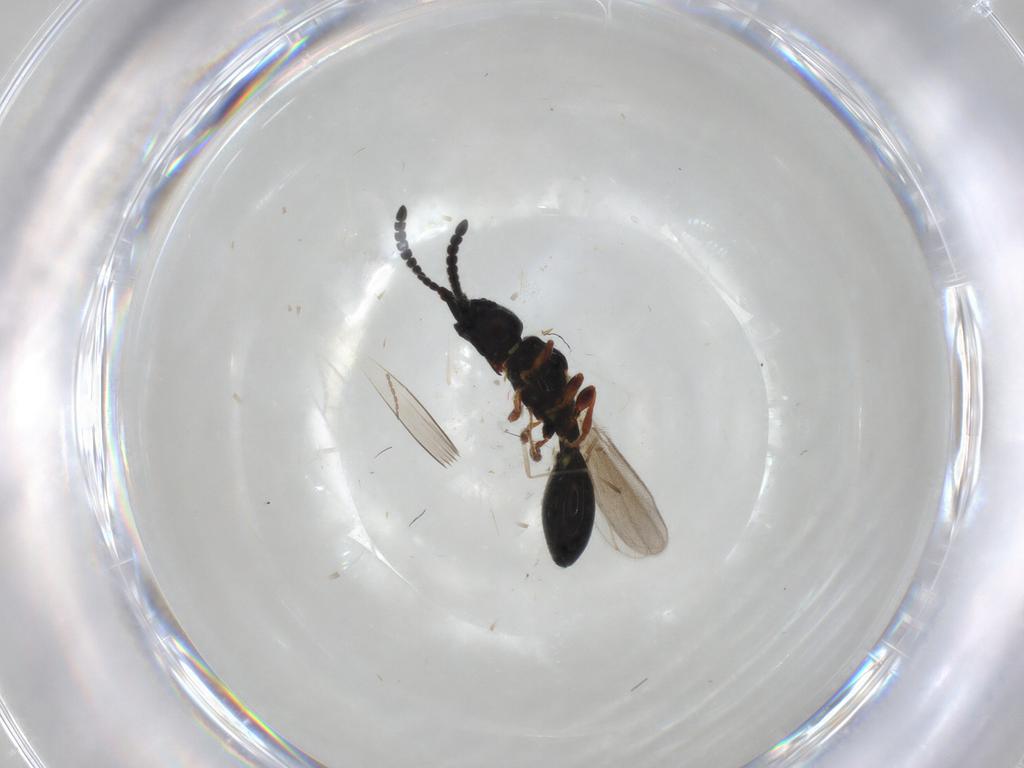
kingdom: Animalia
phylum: Arthropoda
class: Insecta
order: Hymenoptera
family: Diapriidae
